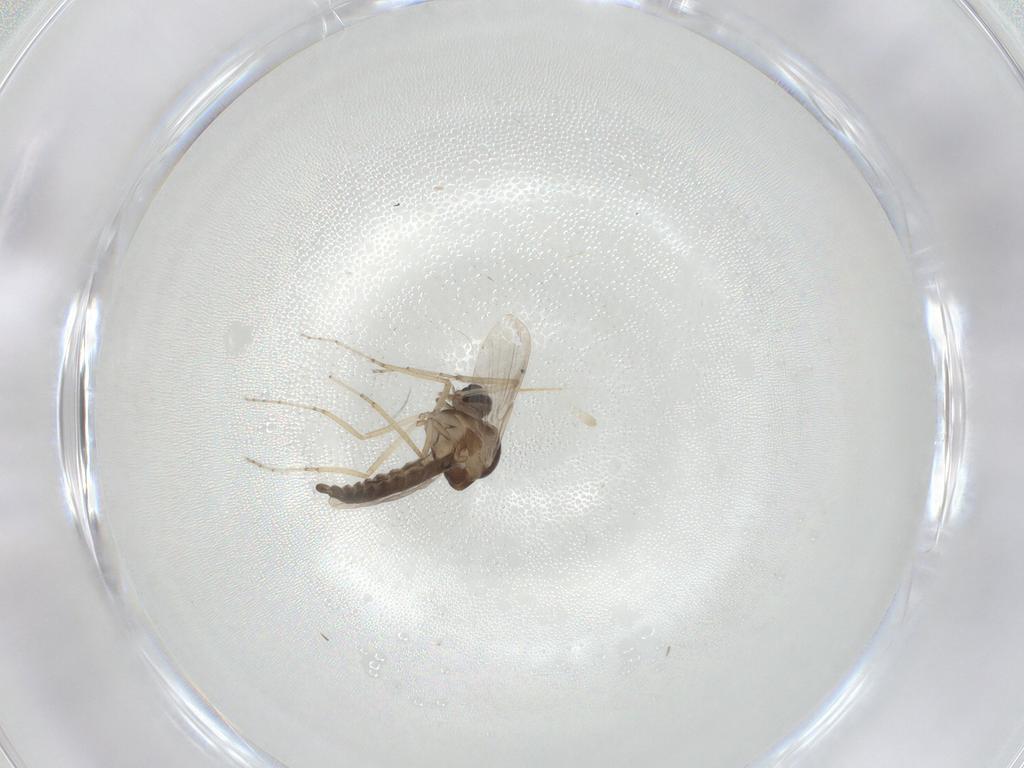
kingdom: Animalia
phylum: Arthropoda
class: Insecta
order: Diptera
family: Ceratopogonidae
